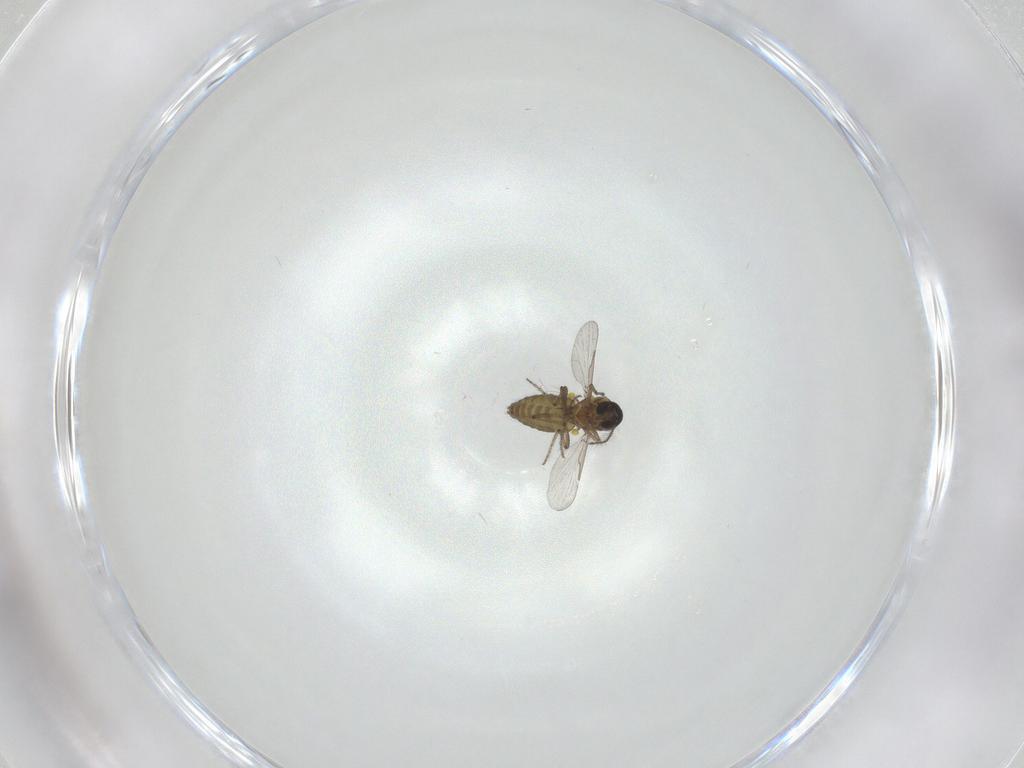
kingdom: Animalia
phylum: Arthropoda
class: Insecta
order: Diptera
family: Ceratopogonidae
